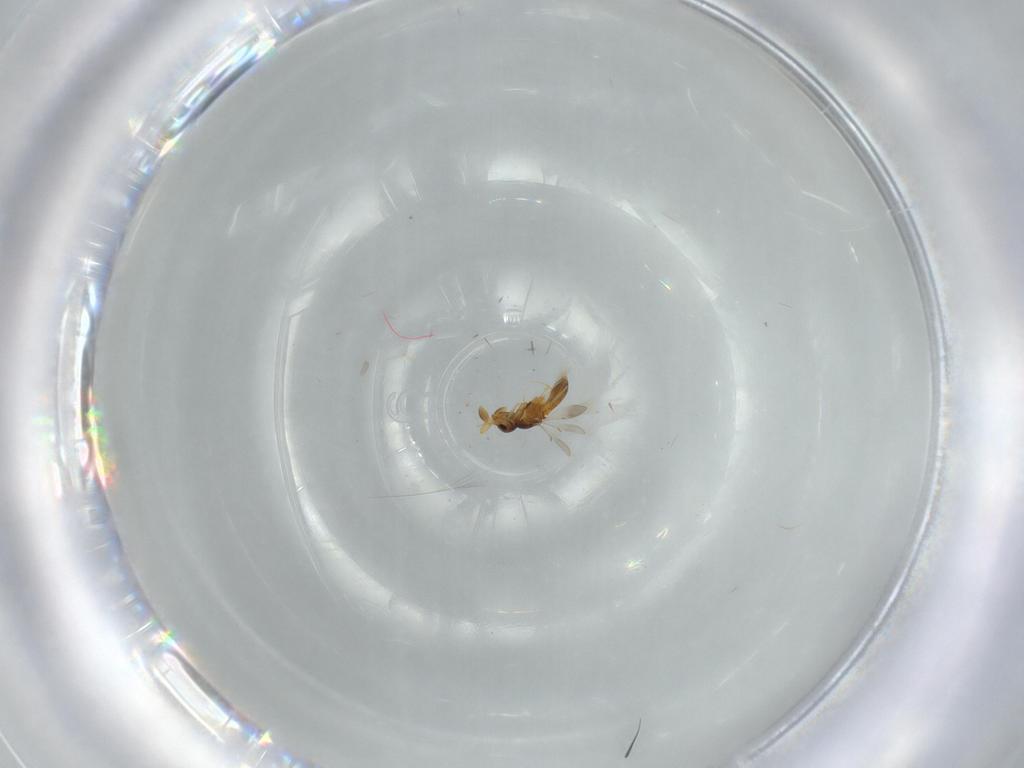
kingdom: Animalia
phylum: Arthropoda
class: Insecta
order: Hymenoptera
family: Scelionidae
